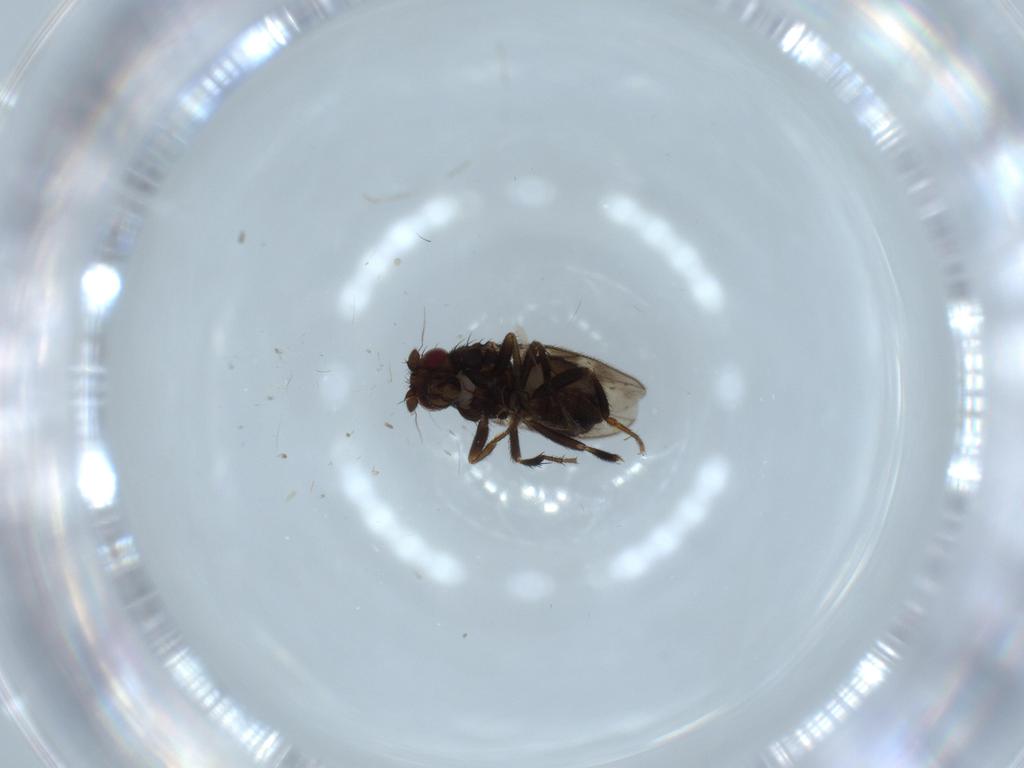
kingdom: Animalia
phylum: Arthropoda
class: Insecta
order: Diptera
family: Sphaeroceridae
